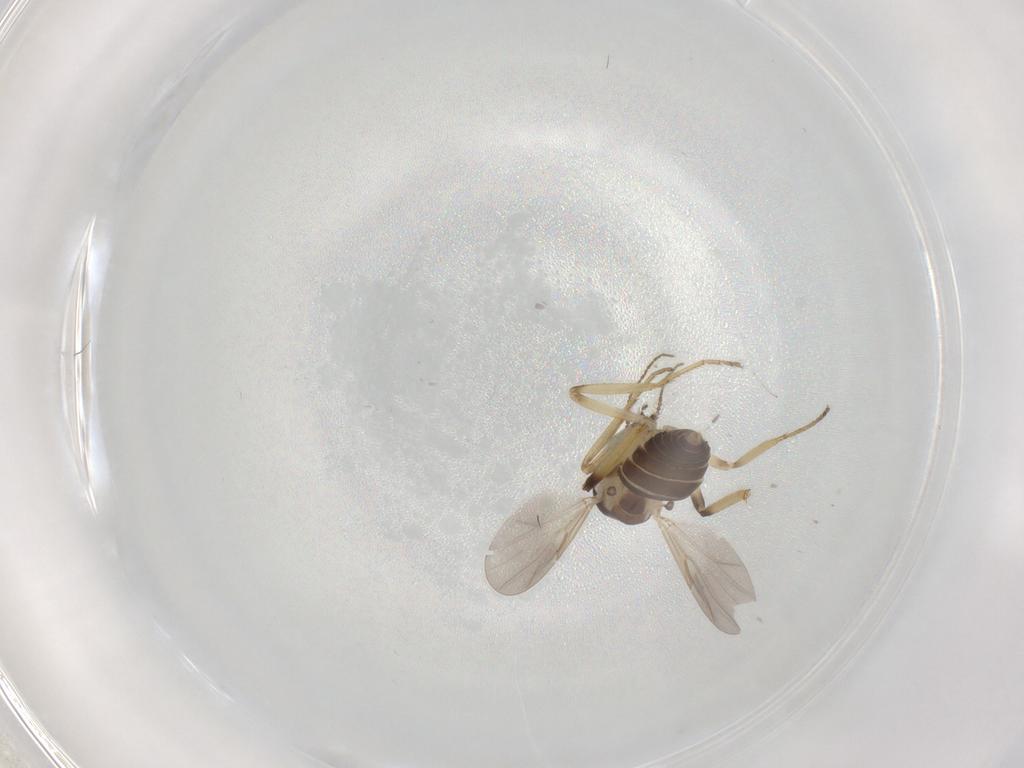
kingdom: Animalia
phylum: Arthropoda
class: Insecta
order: Diptera
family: Ceratopogonidae
